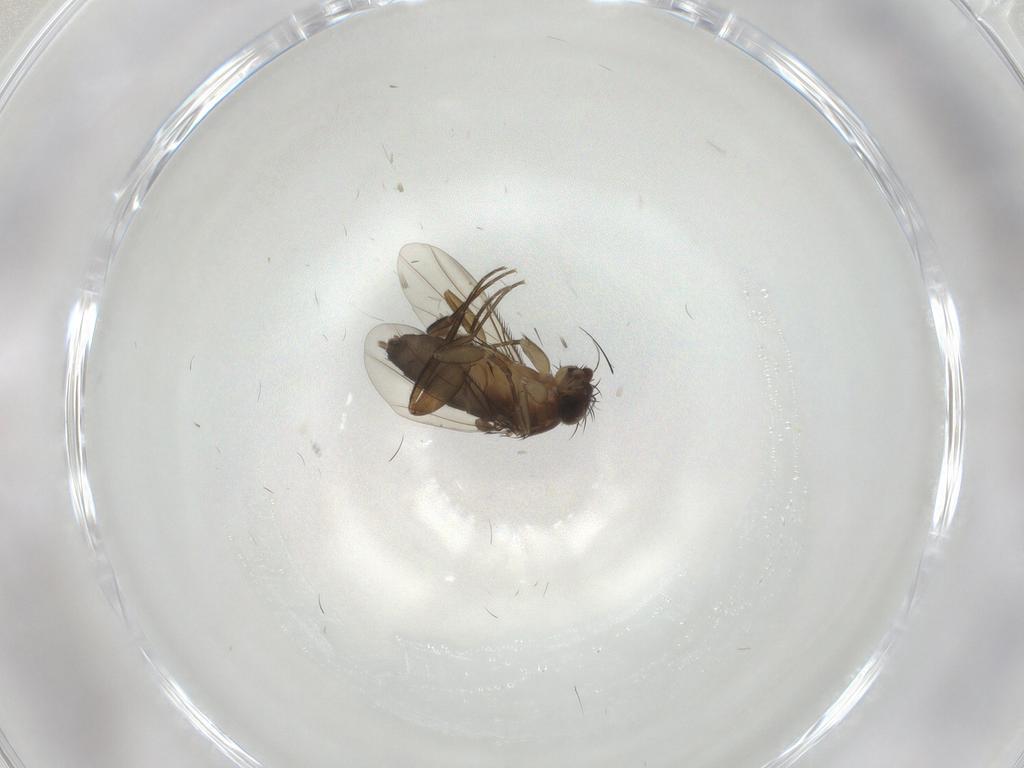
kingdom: Animalia
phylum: Arthropoda
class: Insecta
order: Diptera
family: Phoridae
